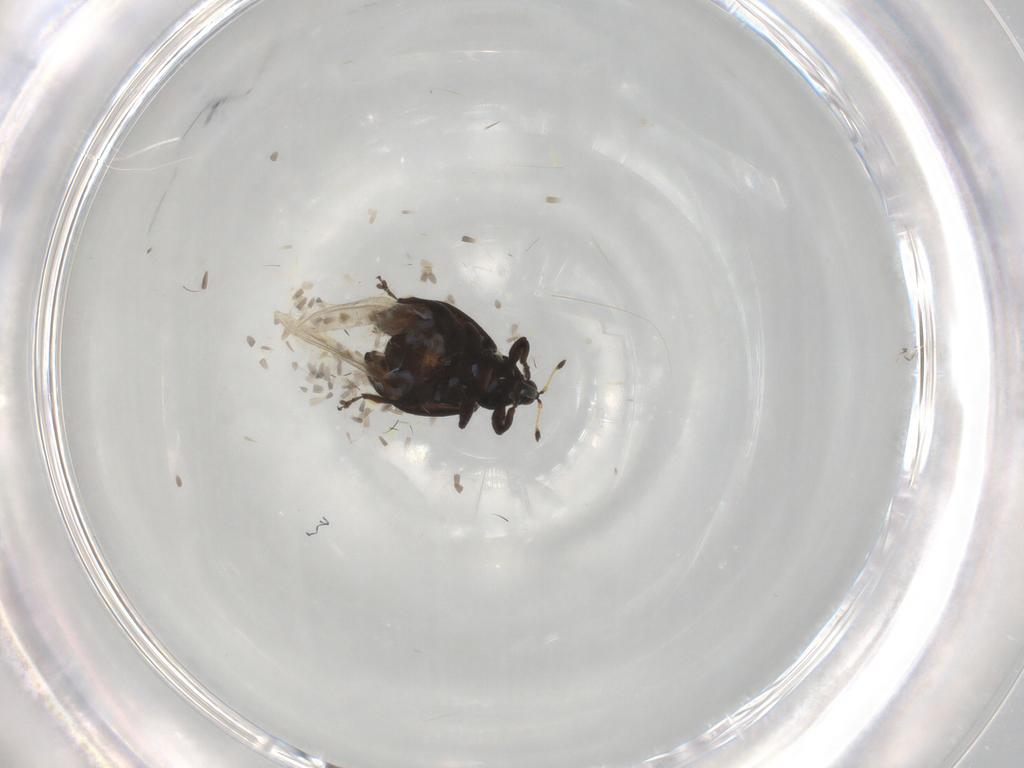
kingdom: Animalia
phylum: Arthropoda
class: Insecta
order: Coleoptera
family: Curculionidae
